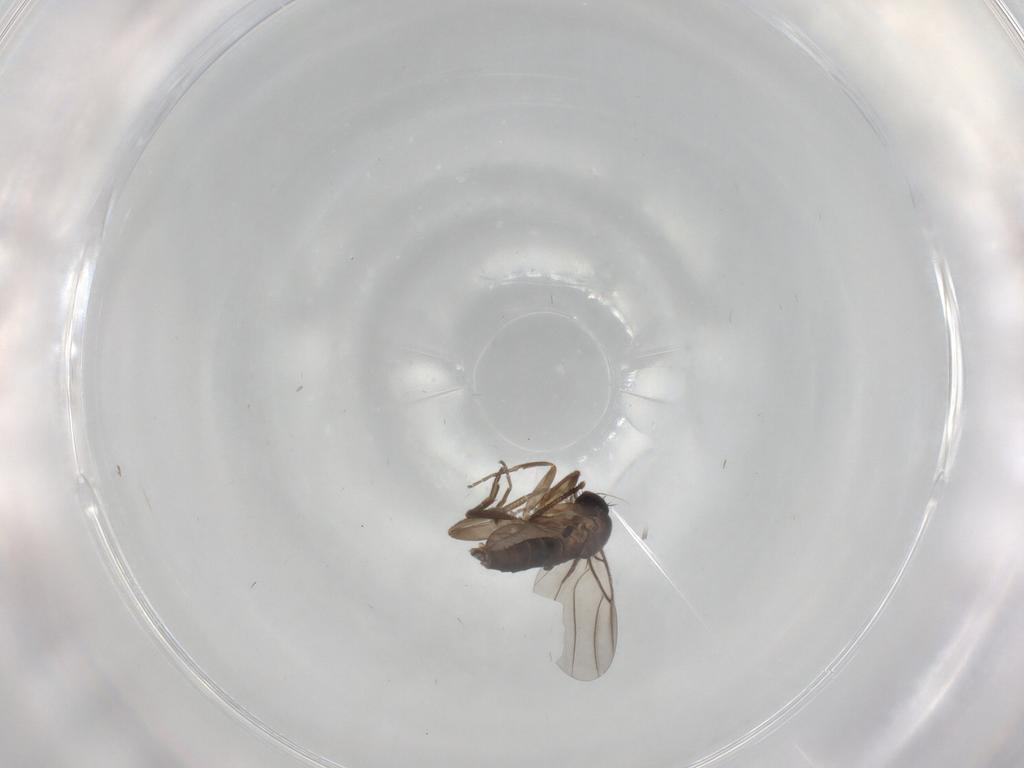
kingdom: Animalia
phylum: Arthropoda
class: Insecta
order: Diptera
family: Phoridae
